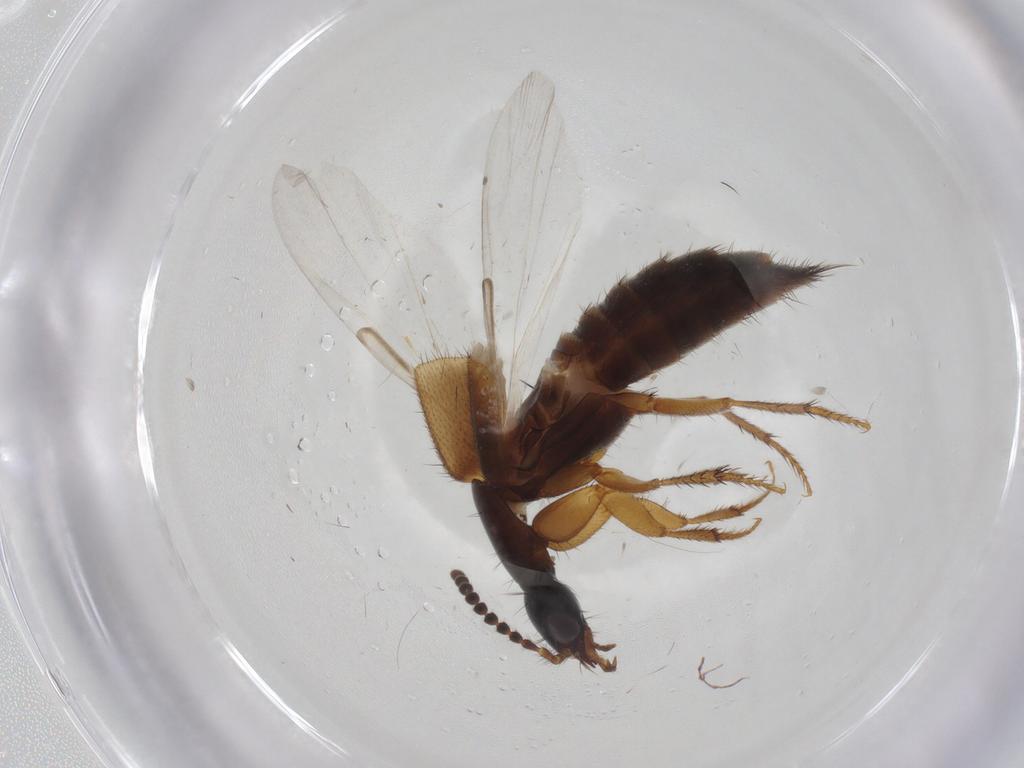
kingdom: Animalia
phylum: Arthropoda
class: Insecta
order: Coleoptera
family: Staphylinidae
